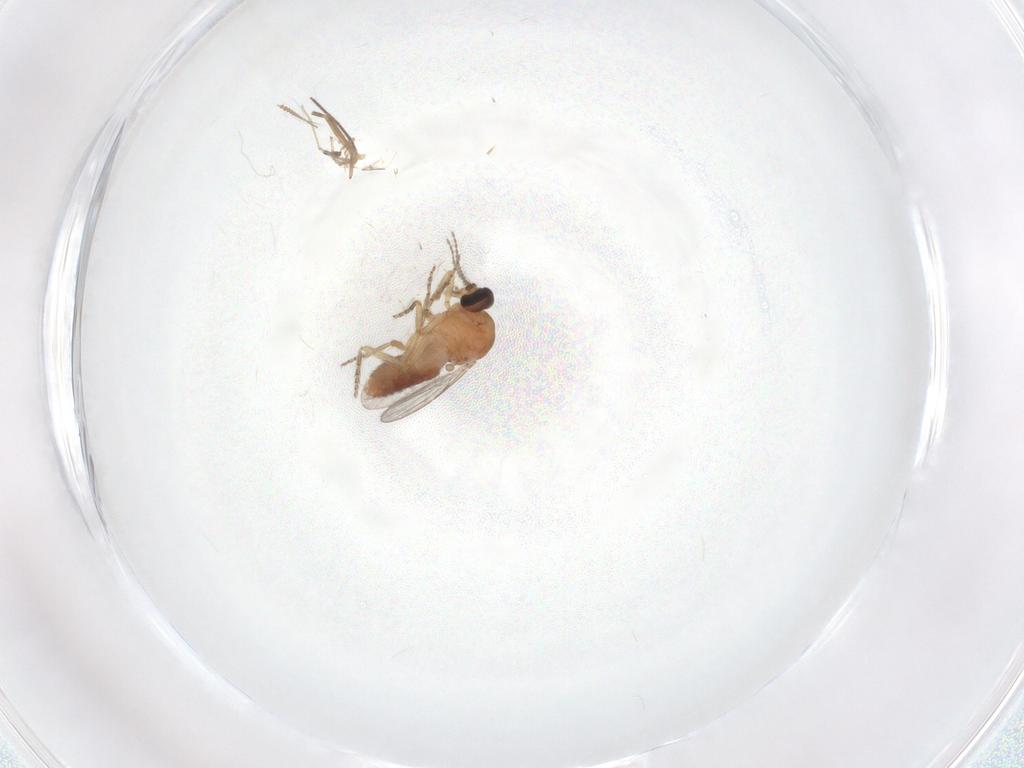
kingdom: Animalia
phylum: Arthropoda
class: Insecta
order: Diptera
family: Ceratopogonidae
